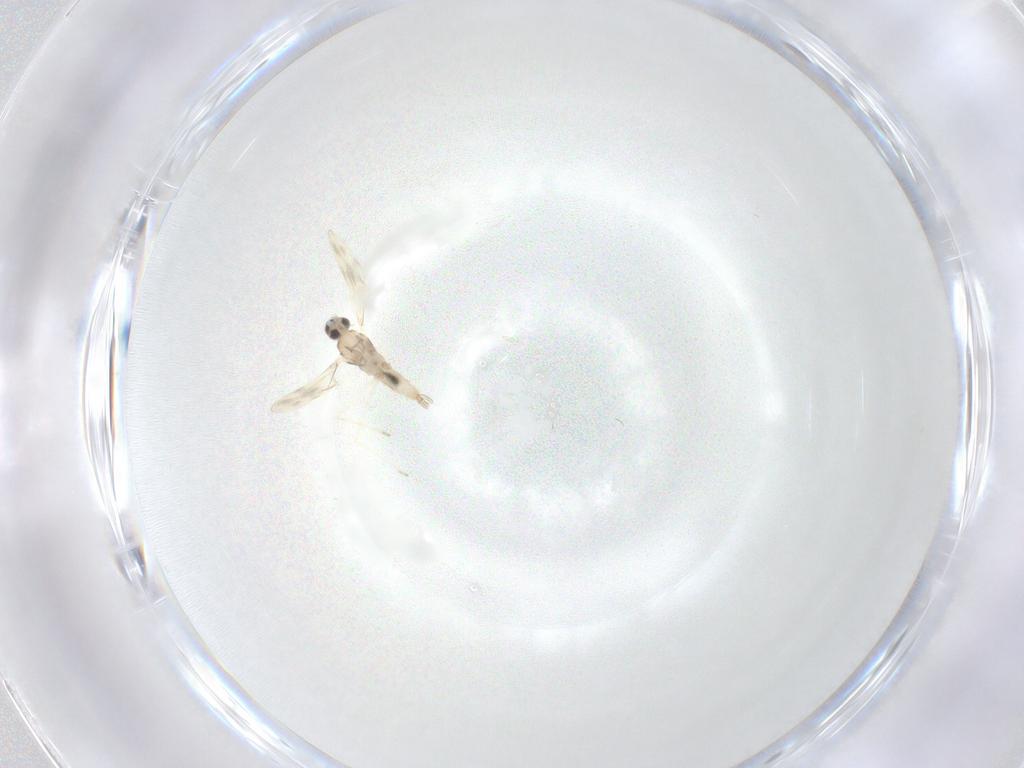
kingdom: Animalia
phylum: Arthropoda
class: Insecta
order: Diptera
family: Cecidomyiidae
